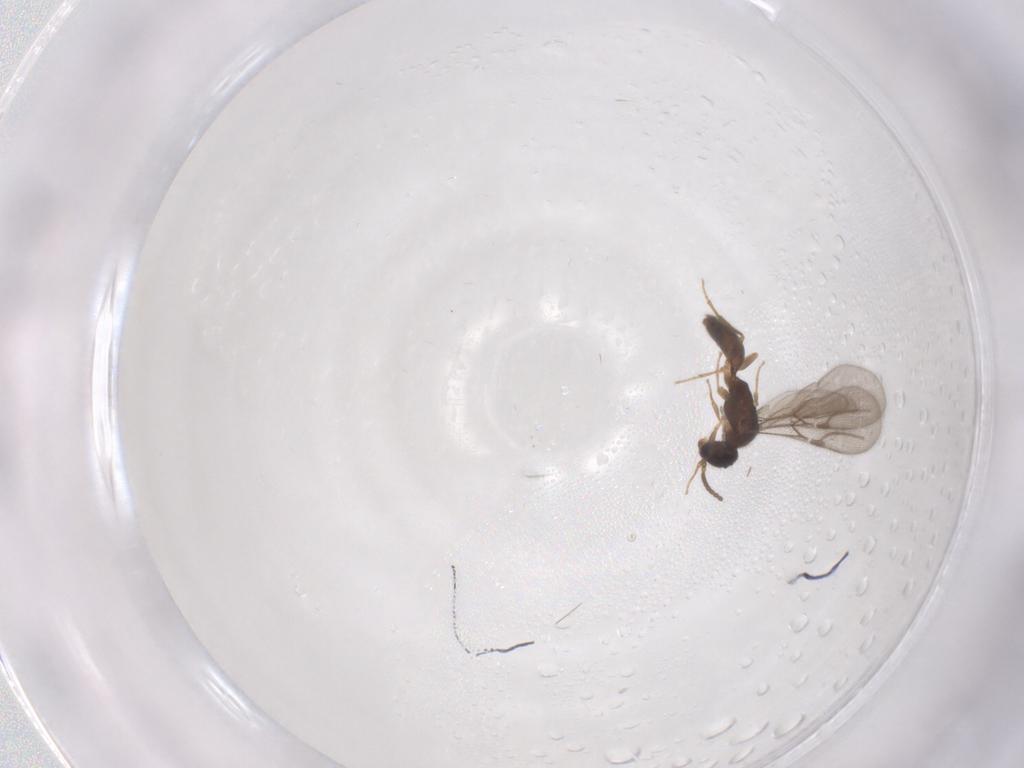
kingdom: Animalia
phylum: Arthropoda
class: Insecta
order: Hymenoptera
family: Bethylidae
